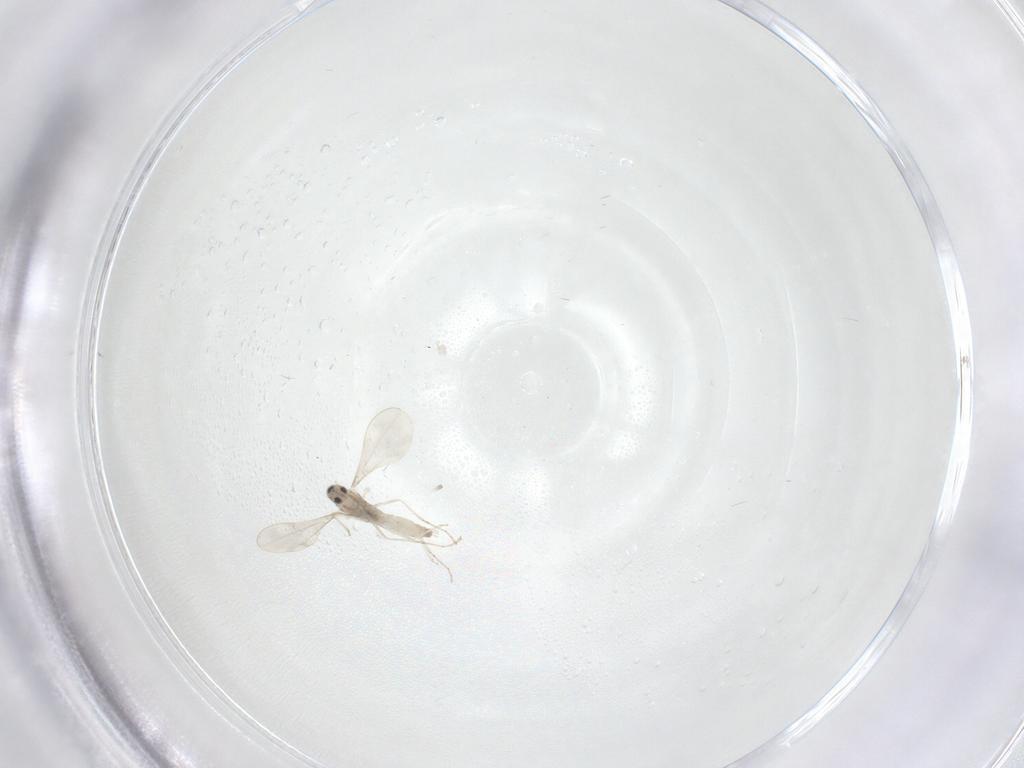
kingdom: Animalia
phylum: Arthropoda
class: Insecta
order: Diptera
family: Cecidomyiidae
